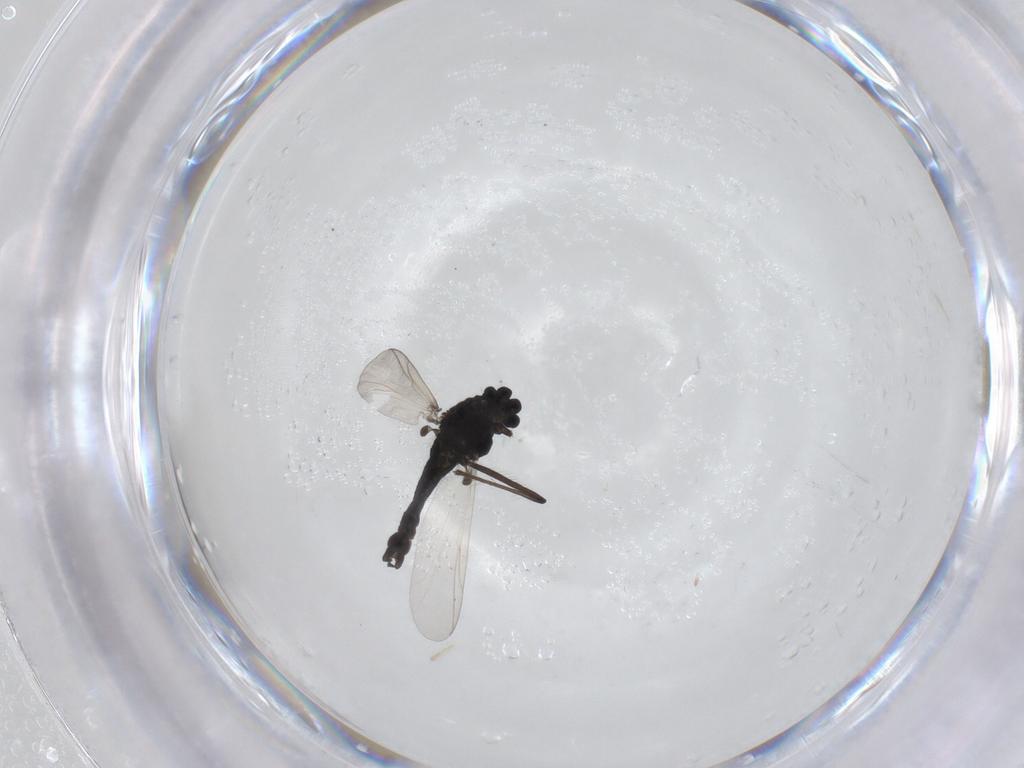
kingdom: Animalia
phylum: Arthropoda
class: Insecta
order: Diptera
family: Chironomidae
